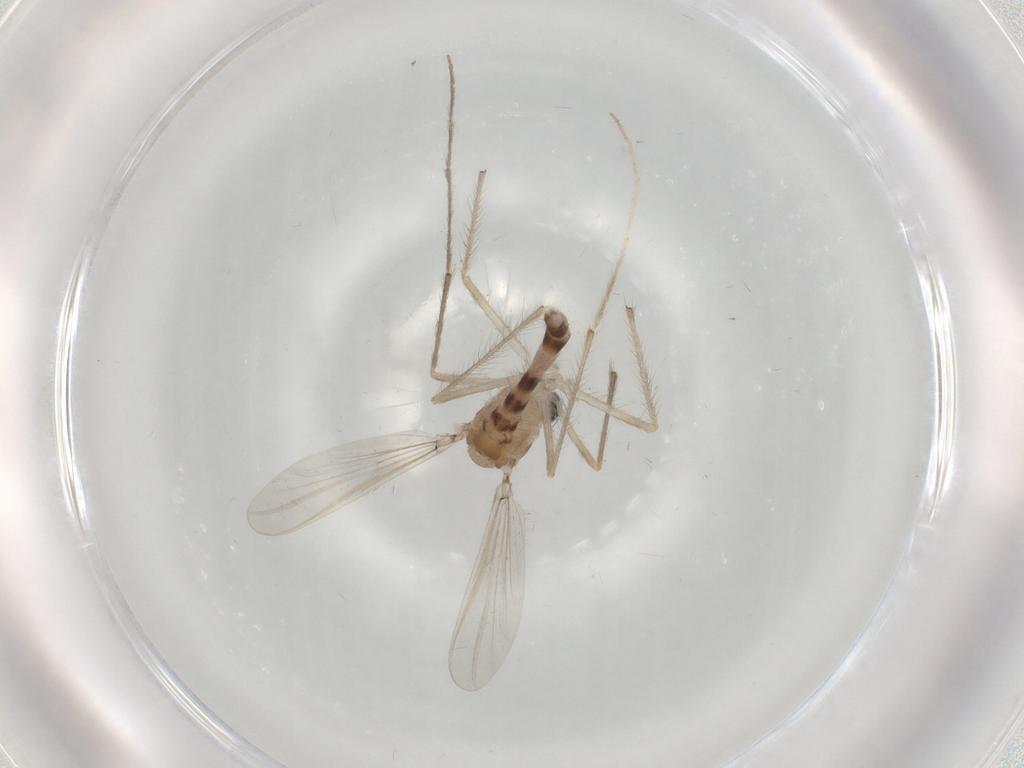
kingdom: Animalia
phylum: Arthropoda
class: Insecta
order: Diptera
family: Chironomidae
